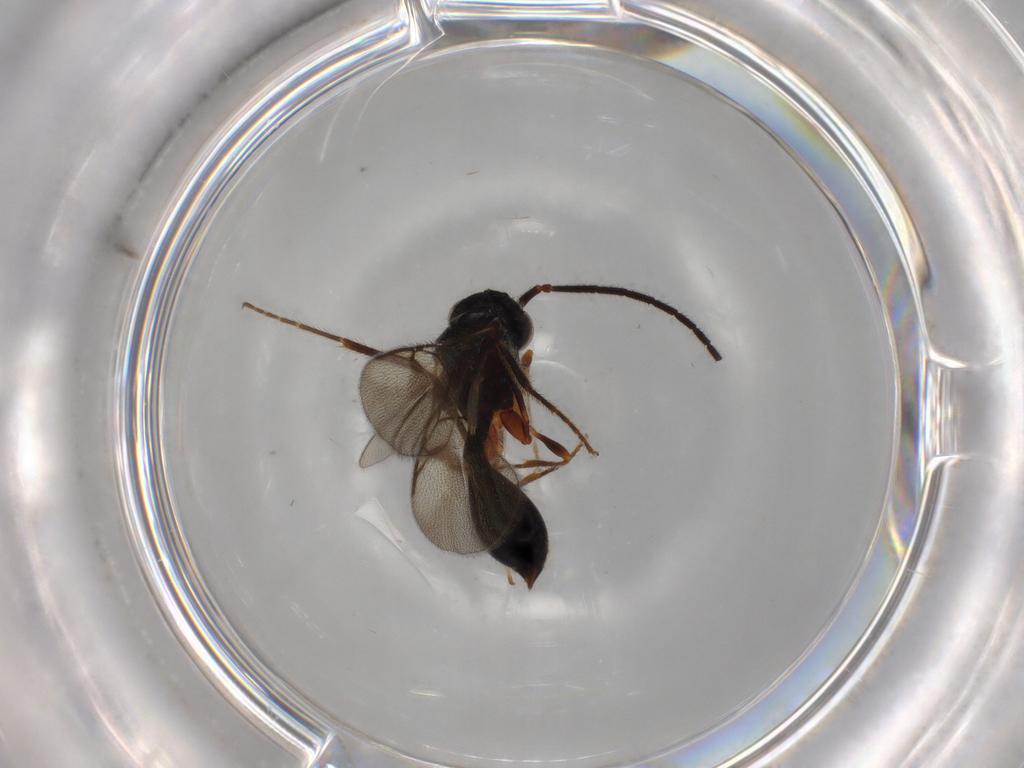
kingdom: Animalia
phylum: Arthropoda
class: Insecta
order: Hymenoptera
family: Diapriidae
